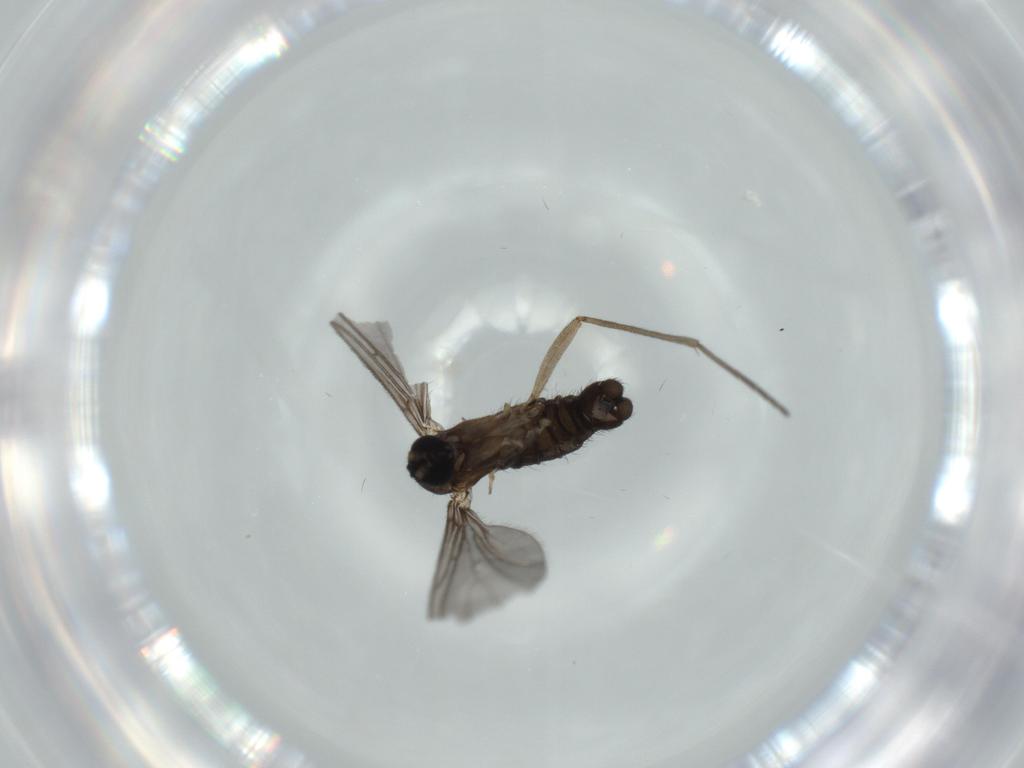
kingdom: Animalia
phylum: Arthropoda
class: Insecta
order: Diptera
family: Sciaridae
